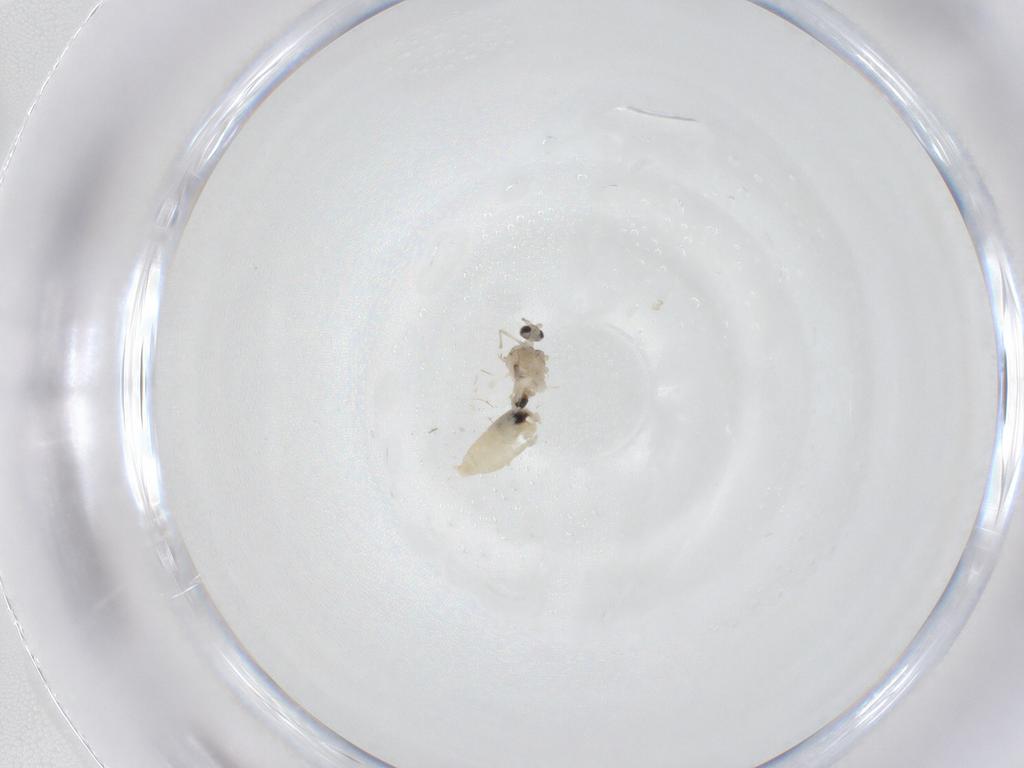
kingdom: Animalia
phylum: Arthropoda
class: Insecta
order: Diptera
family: Cecidomyiidae
